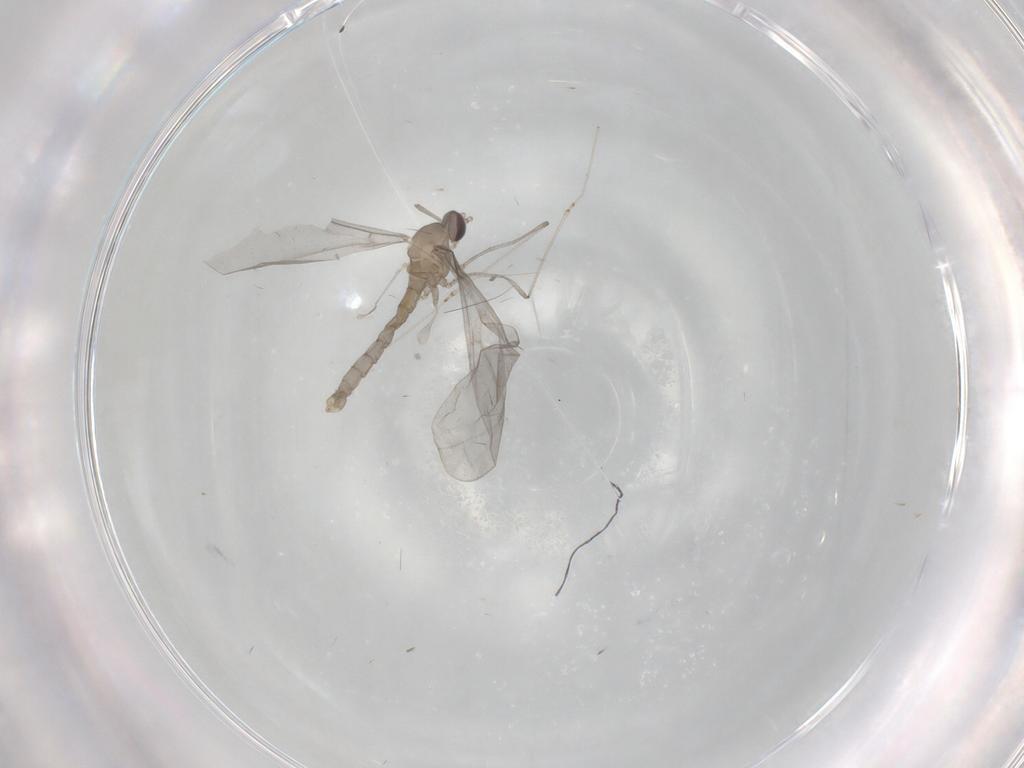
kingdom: Animalia
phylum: Arthropoda
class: Insecta
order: Diptera
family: Cecidomyiidae
